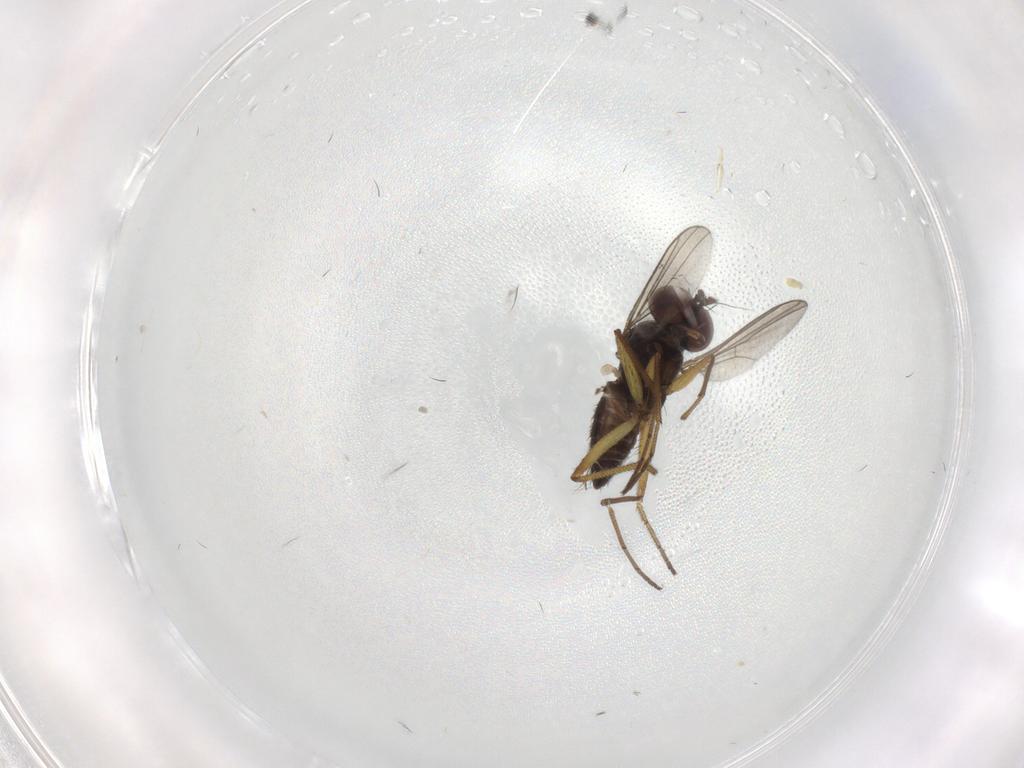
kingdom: Animalia
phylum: Arthropoda
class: Insecta
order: Diptera
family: Dolichopodidae
